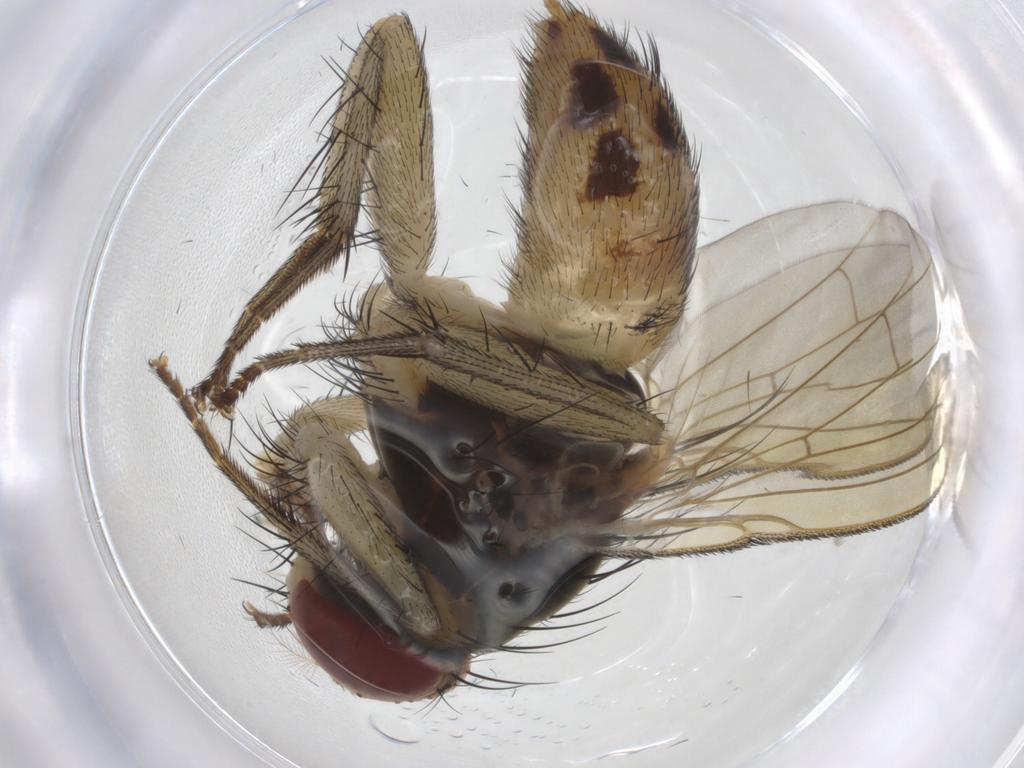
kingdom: Animalia
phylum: Arthropoda
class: Insecta
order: Diptera
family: Muscidae
